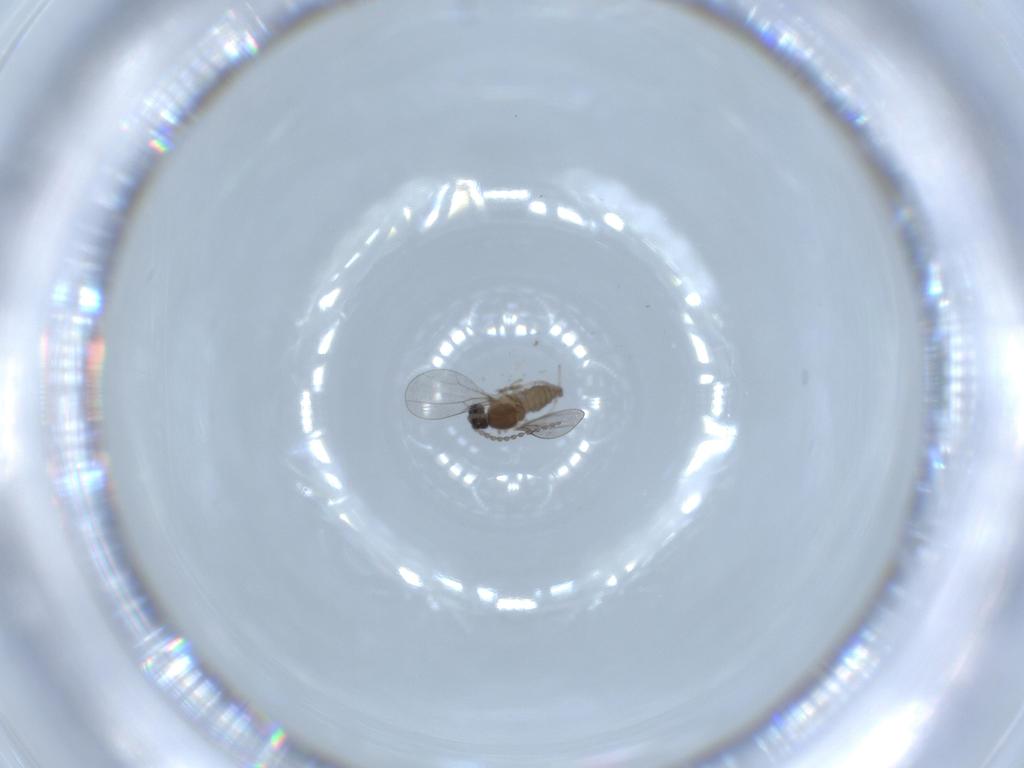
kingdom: Animalia
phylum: Arthropoda
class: Insecta
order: Diptera
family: Cecidomyiidae
